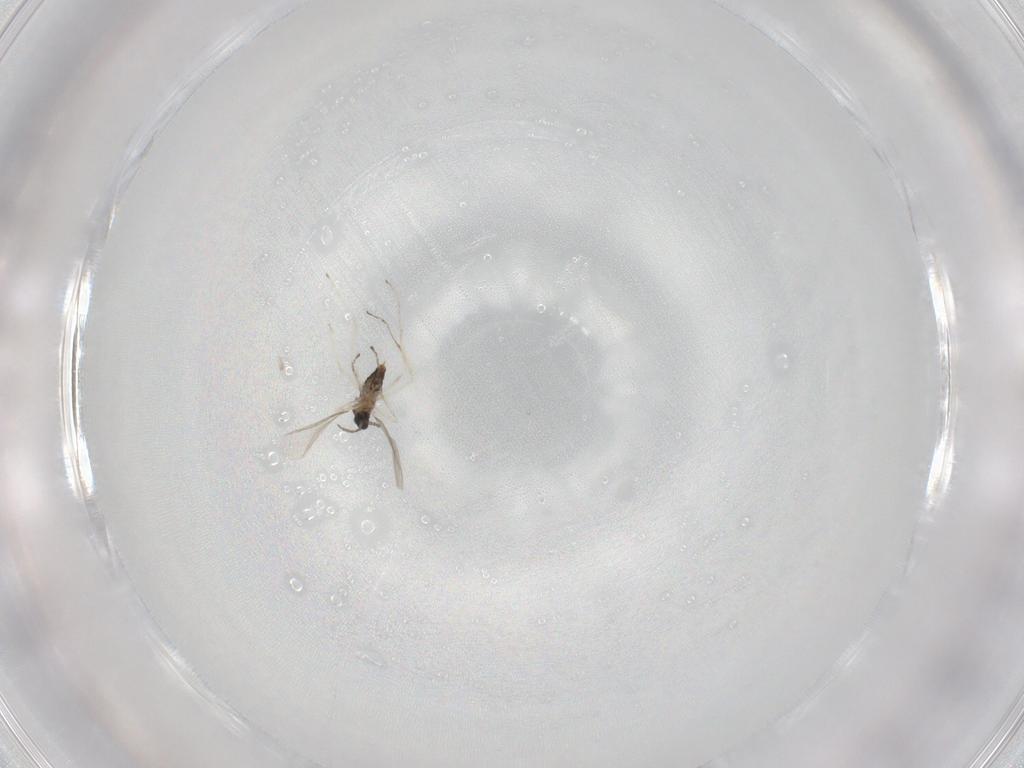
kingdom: Animalia
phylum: Arthropoda
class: Insecta
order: Diptera
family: Cecidomyiidae
